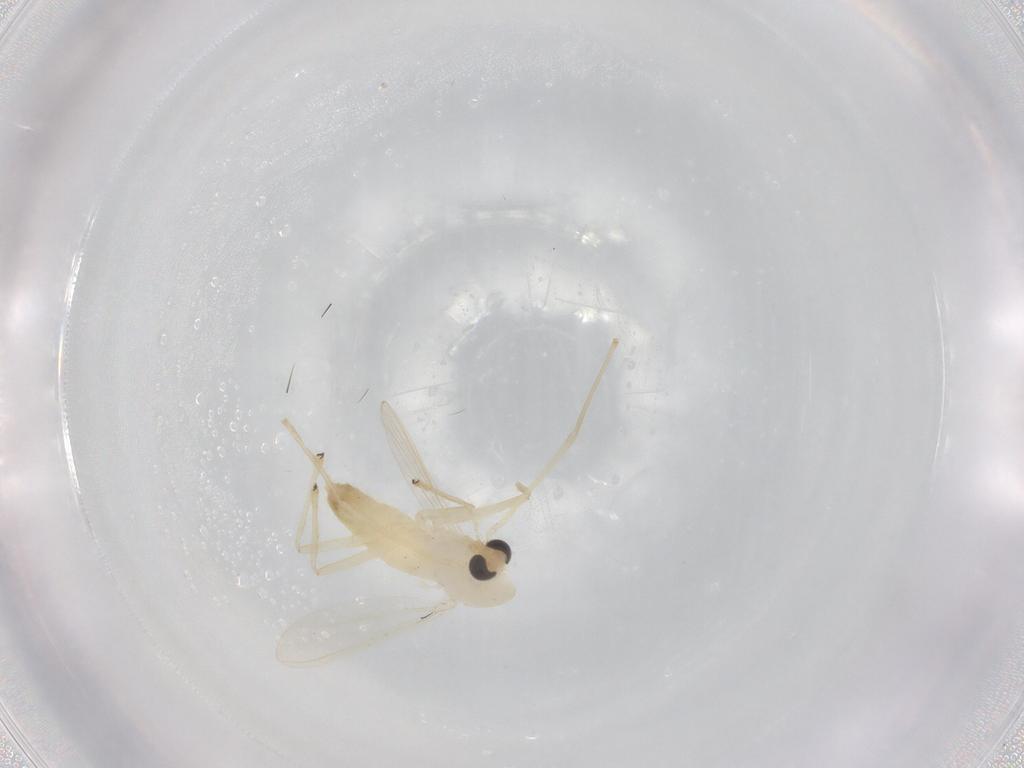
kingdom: Animalia
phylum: Arthropoda
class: Insecta
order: Diptera
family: Chironomidae
